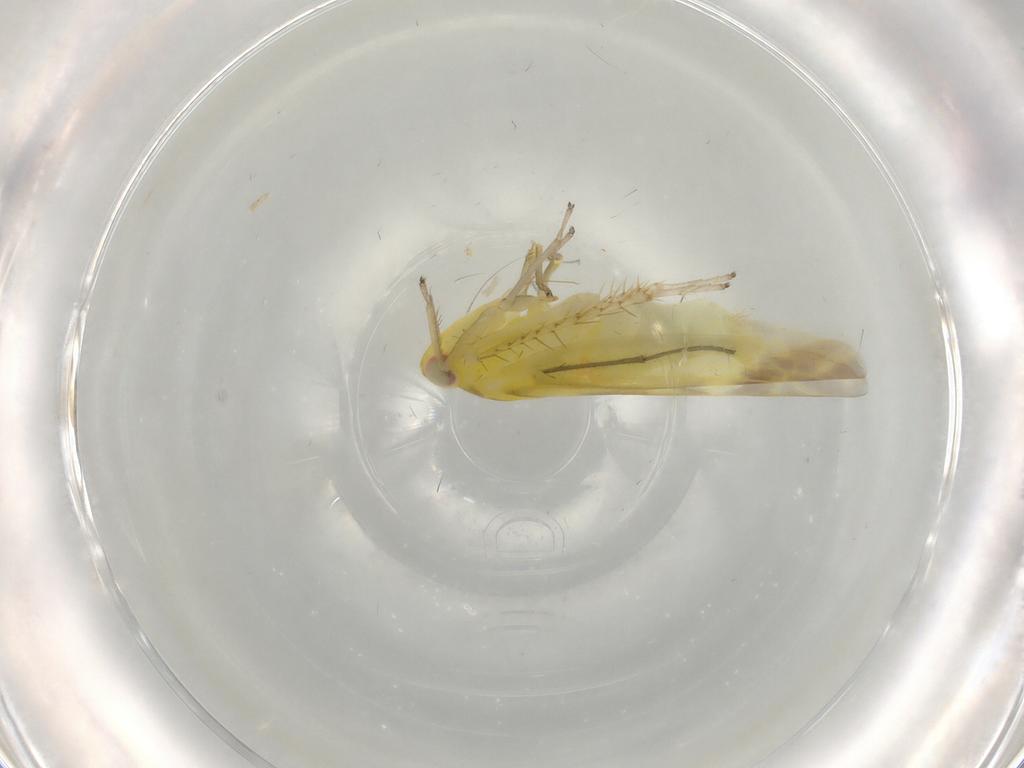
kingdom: Animalia
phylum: Arthropoda
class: Insecta
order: Hemiptera
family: Cicadellidae
